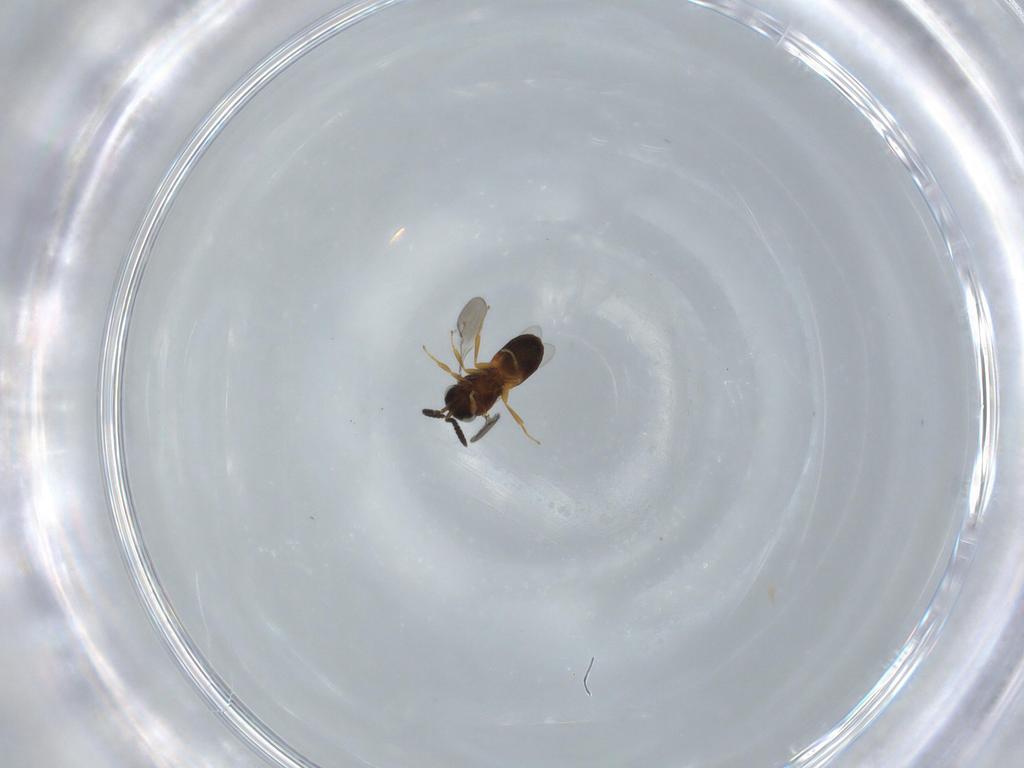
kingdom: Animalia
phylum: Arthropoda
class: Insecta
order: Hymenoptera
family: Scelionidae
